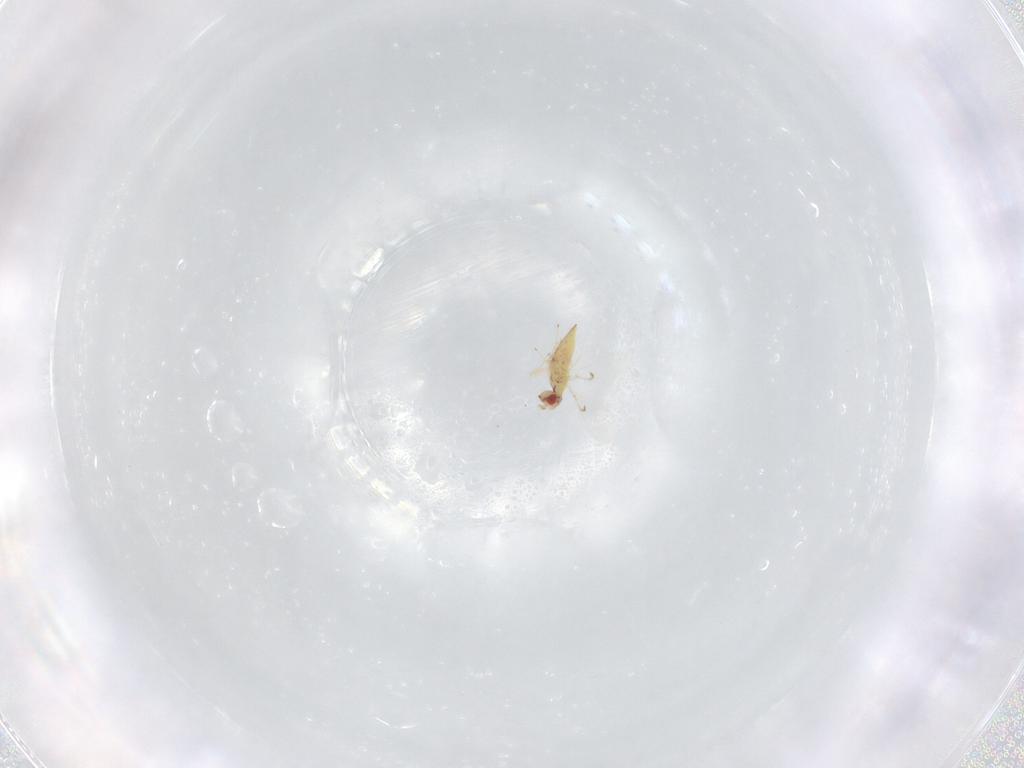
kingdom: Animalia
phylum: Arthropoda
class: Insecta
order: Hymenoptera
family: Trichogrammatidae
